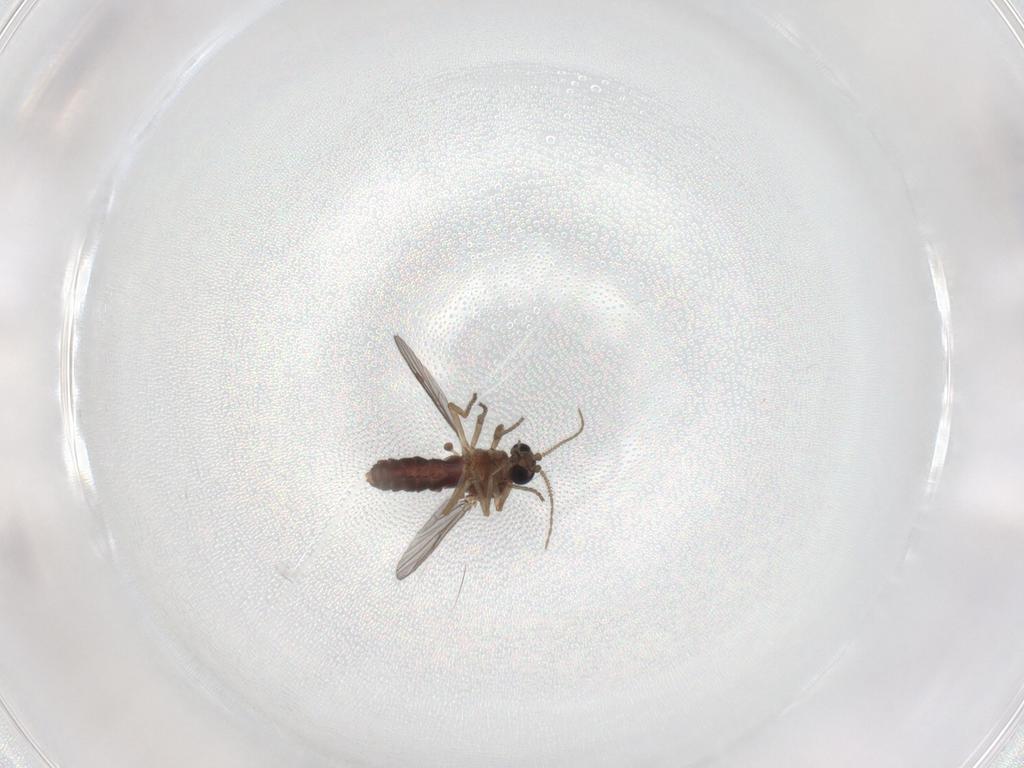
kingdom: Animalia
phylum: Arthropoda
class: Insecta
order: Diptera
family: Ceratopogonidae
